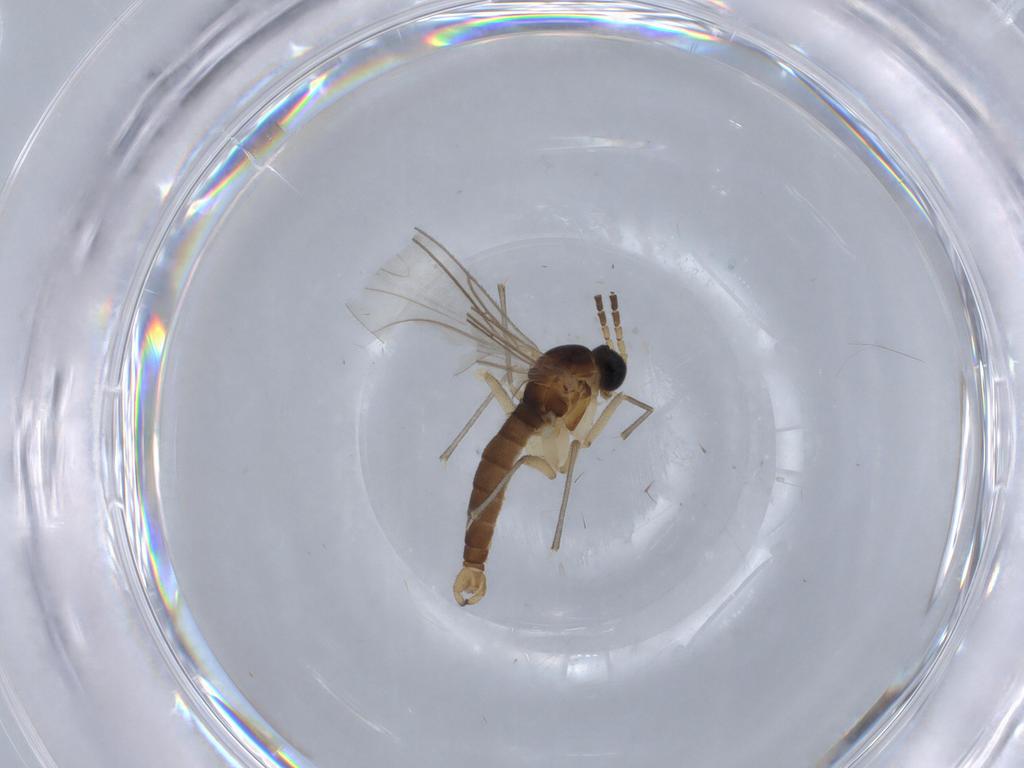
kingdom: Animalia
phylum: Arthropoda
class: Insecta
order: Diptera
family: Sciaridae
